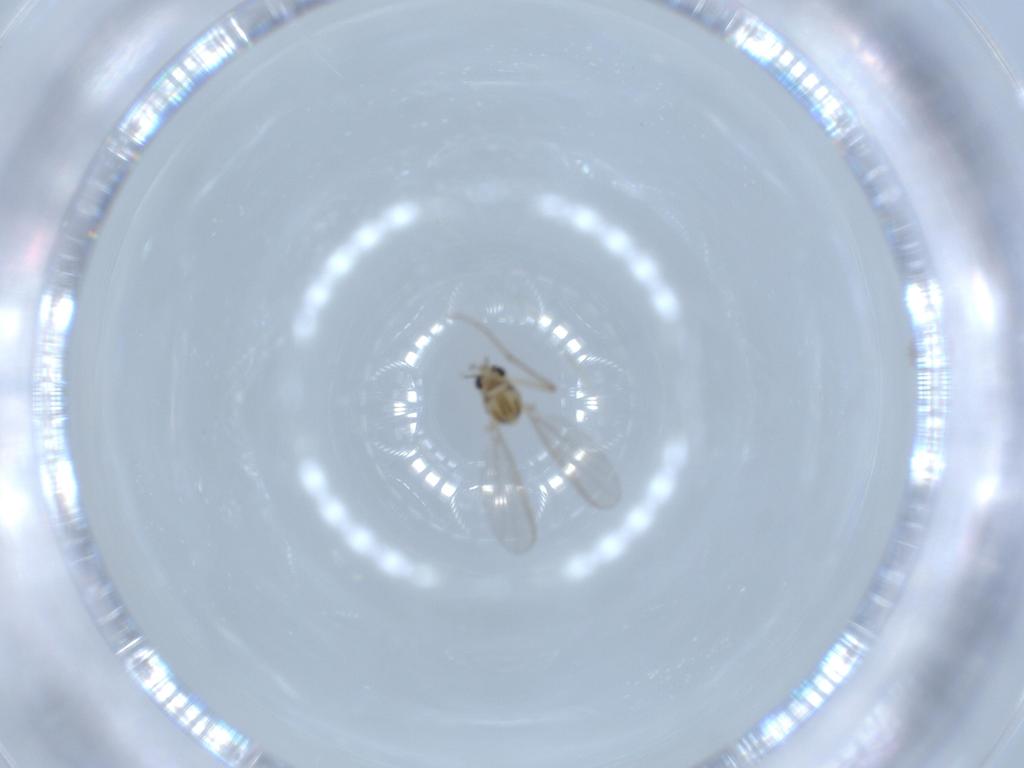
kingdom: Animalia
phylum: Arthropoda
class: Insecta
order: Diptera
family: Chironomidae
